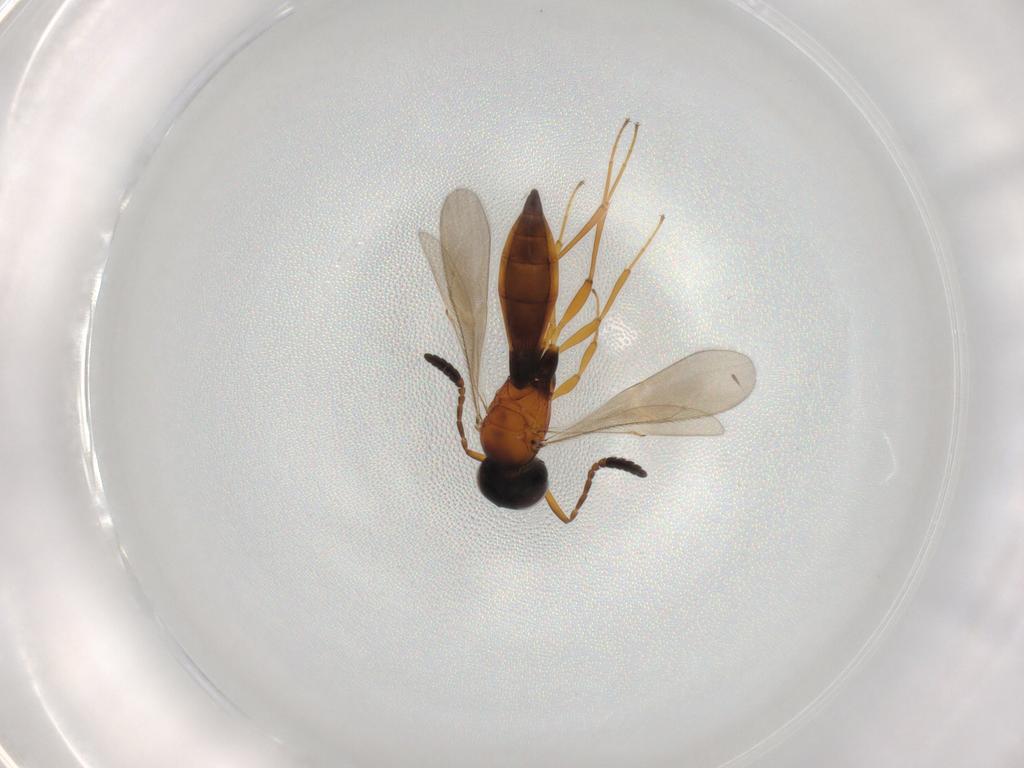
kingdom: Animalia
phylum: Arthropoda
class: Insecta
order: Hymenoptera
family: Scelionidae
